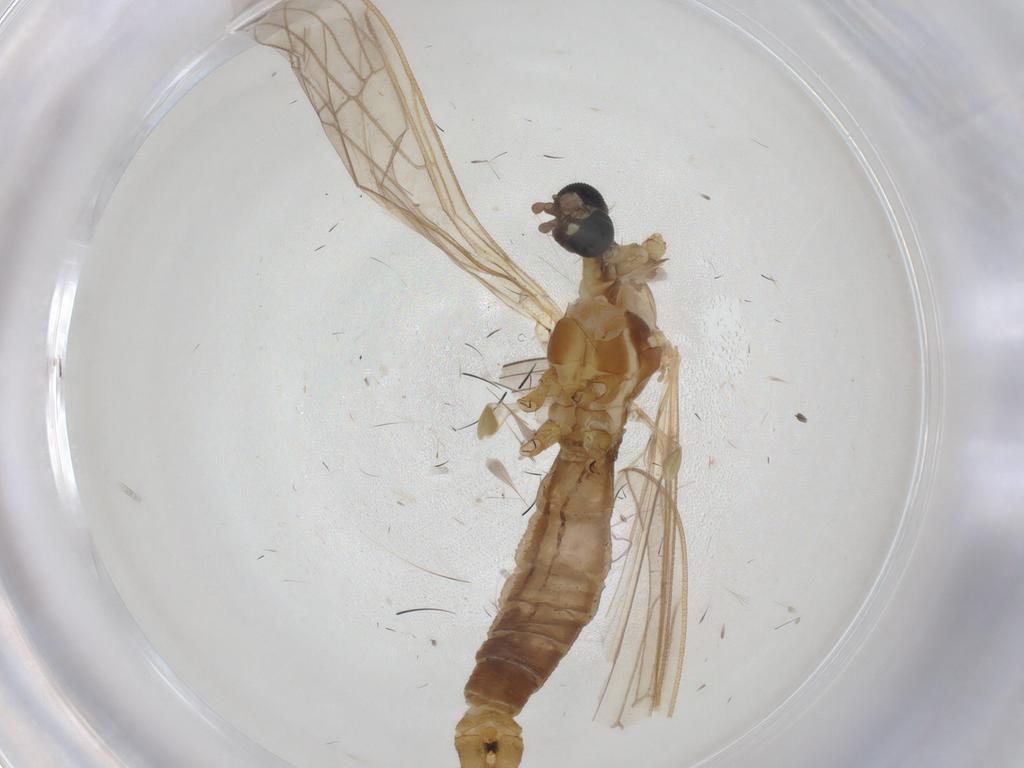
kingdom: Animalia
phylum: Arthropoda
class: Insecta
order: Diptera
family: Limoniidae
